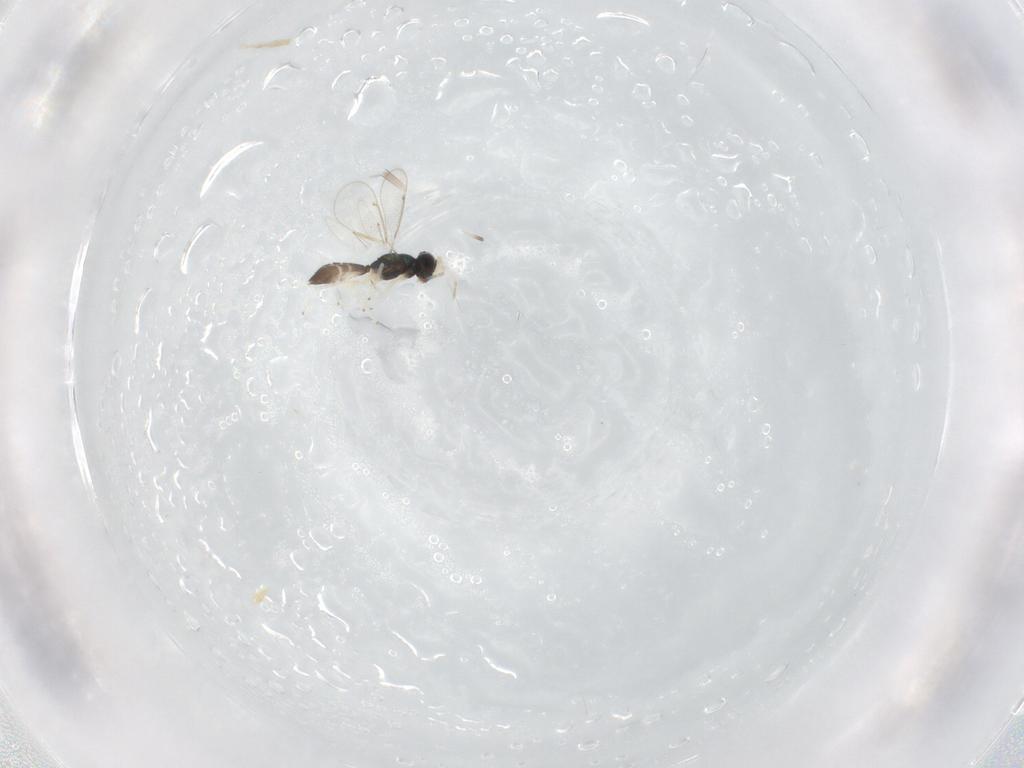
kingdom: Animalia
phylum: Arthropoda
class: Insecta
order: Hymenoptera
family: Eulophidae
